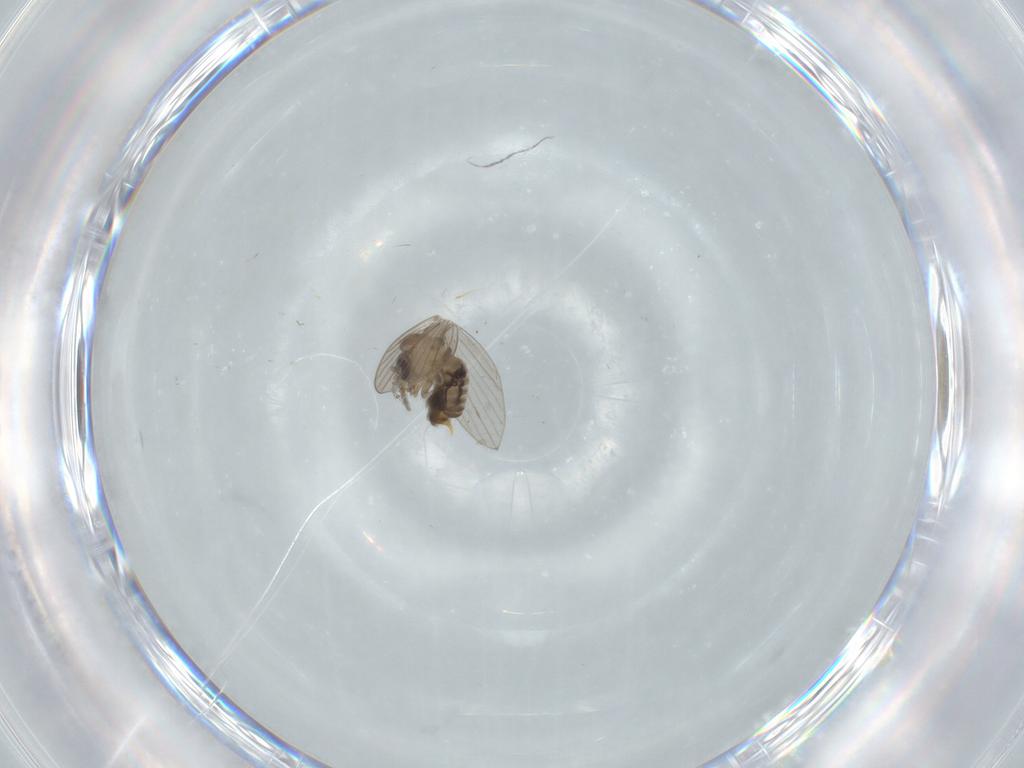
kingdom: Animalia
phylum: Arthropoda
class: Insecta
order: Diptera
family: Psychodidae
